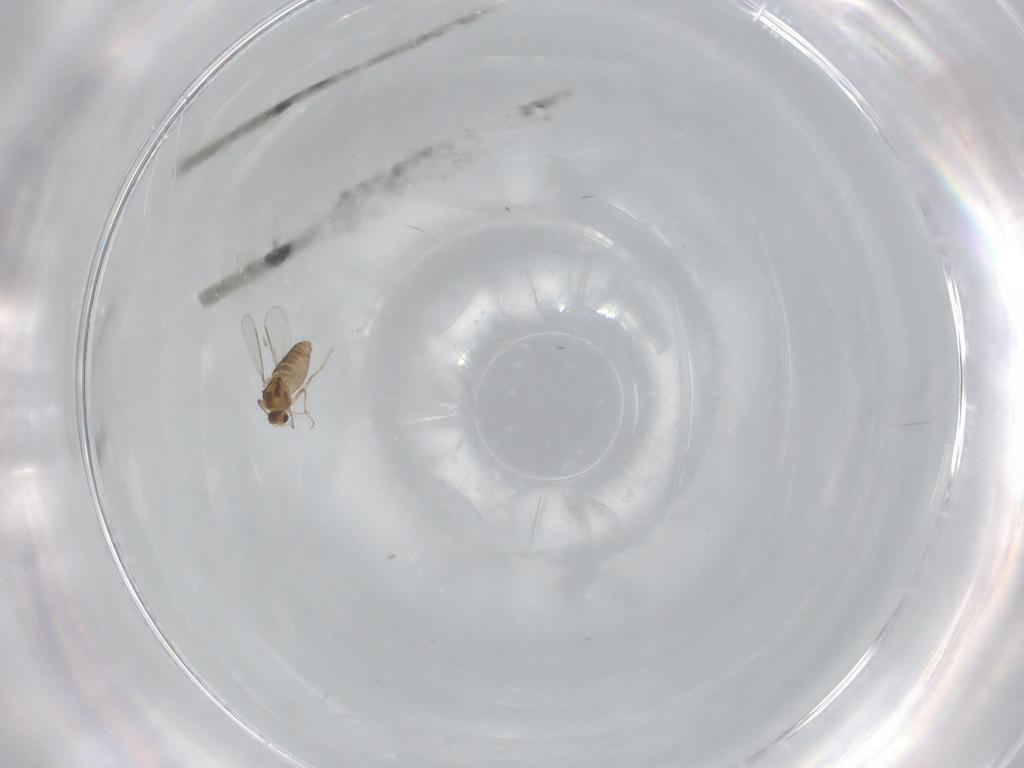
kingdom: Animalia
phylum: Arthropoda
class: Insecta
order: Diptera
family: Chironomidae
